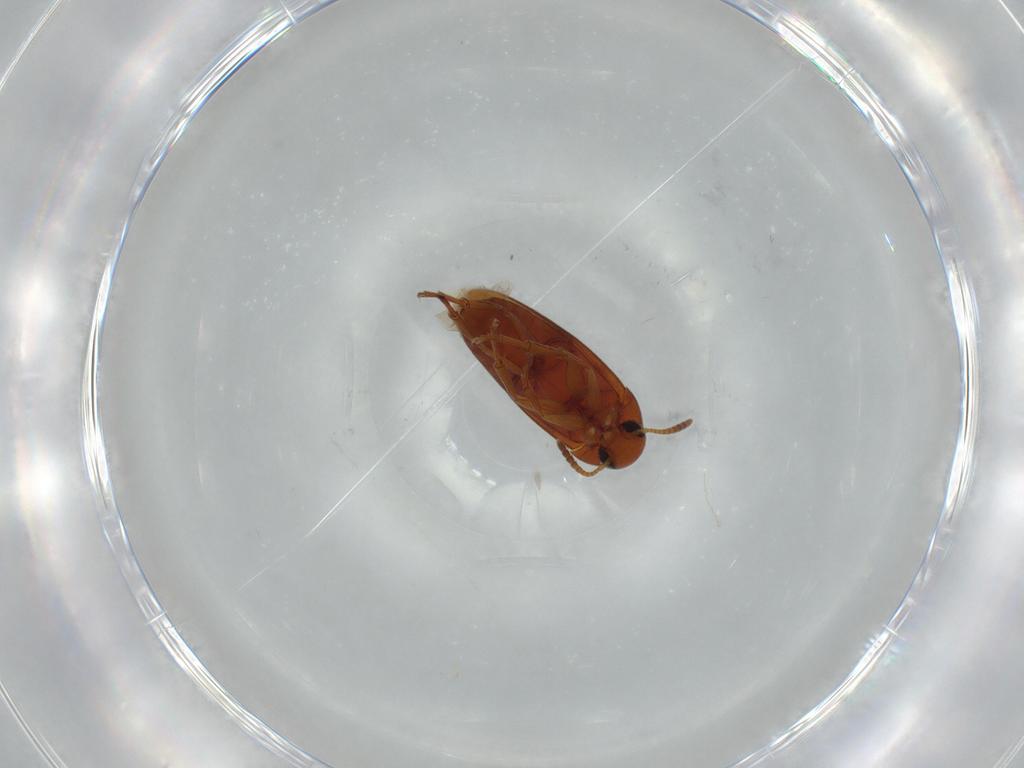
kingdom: Animalia
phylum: Arthropoda
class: Insecta
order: Coleoptera
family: Scraptiidae
